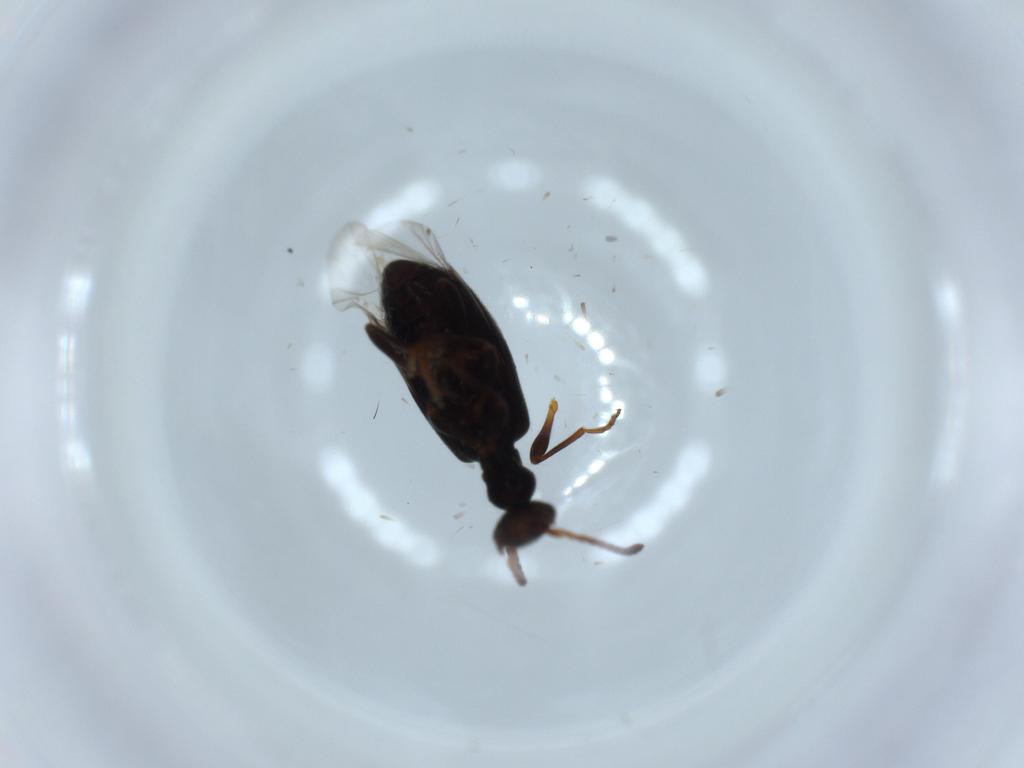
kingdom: Animalia
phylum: Arthropoda
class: Insecta
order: Coleoptera
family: Anthicidae
